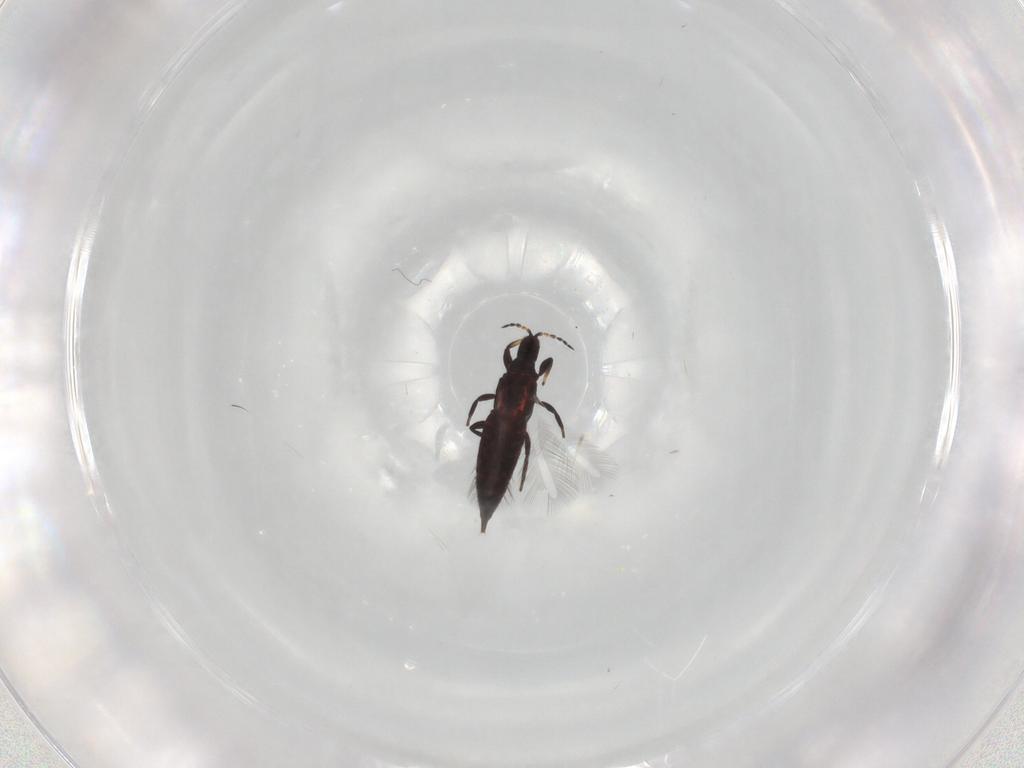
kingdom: Animalia
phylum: Arthropoda
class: Insecta
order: Thysanoptera
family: Phlaeothripidae
